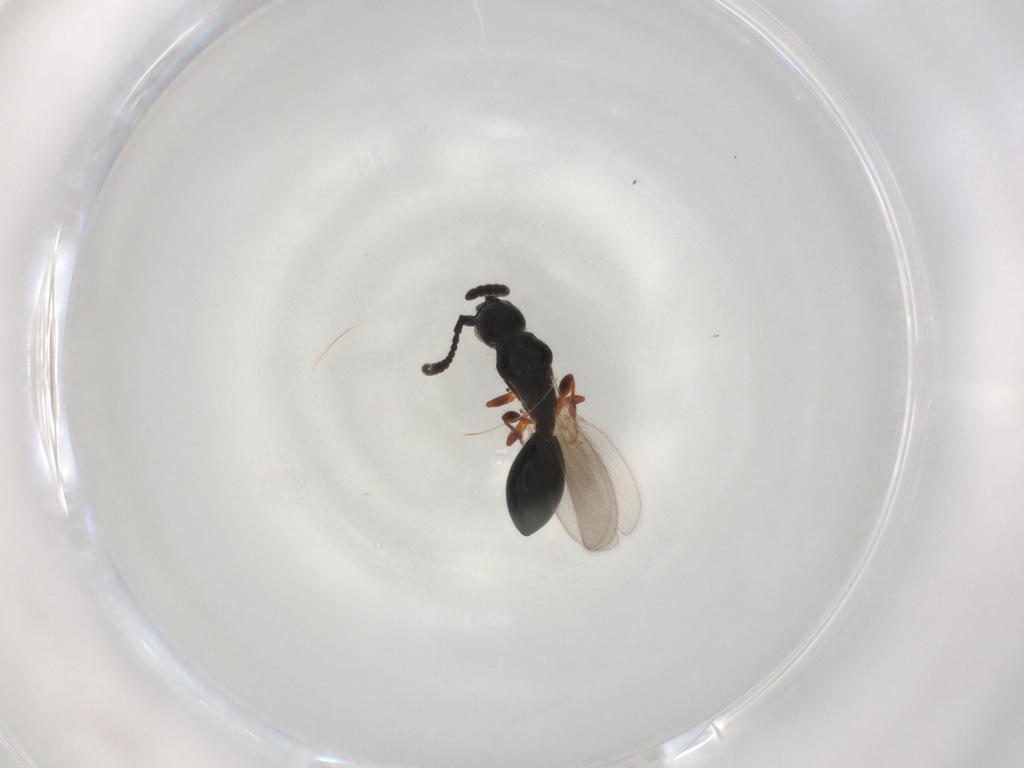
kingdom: Animalia
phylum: Arthropoda
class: Insecta
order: Hymenoptera
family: Diapriidae
